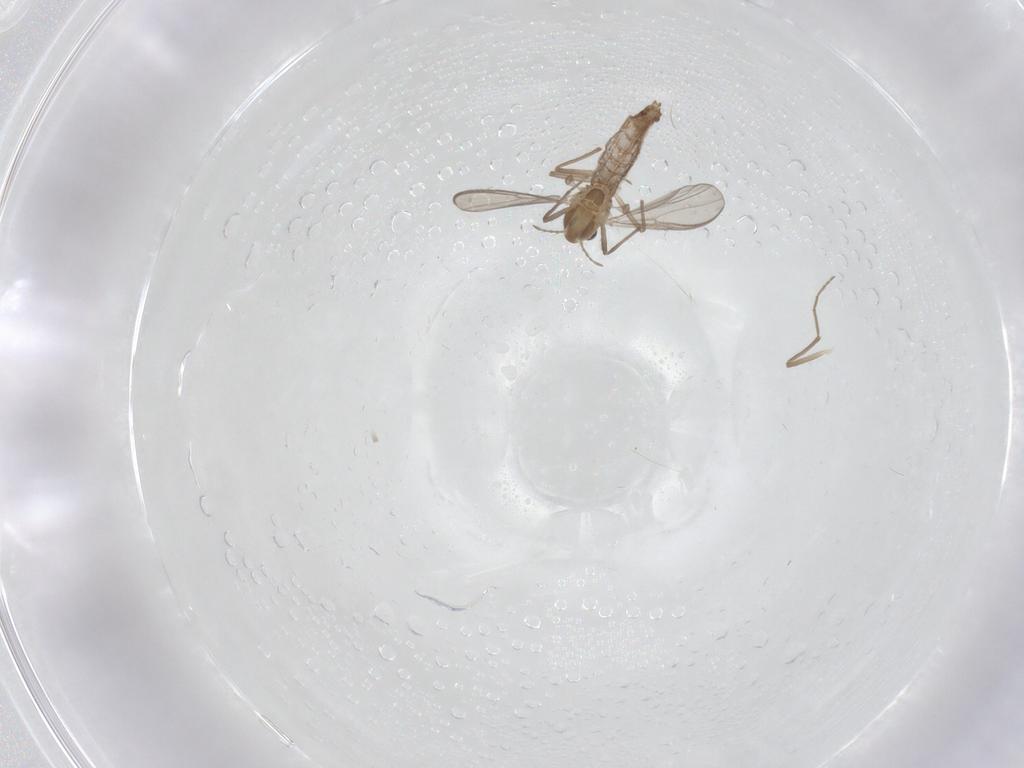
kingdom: Animalia
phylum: Arthropoda
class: Insecta
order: Diptera
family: Chironomidae
